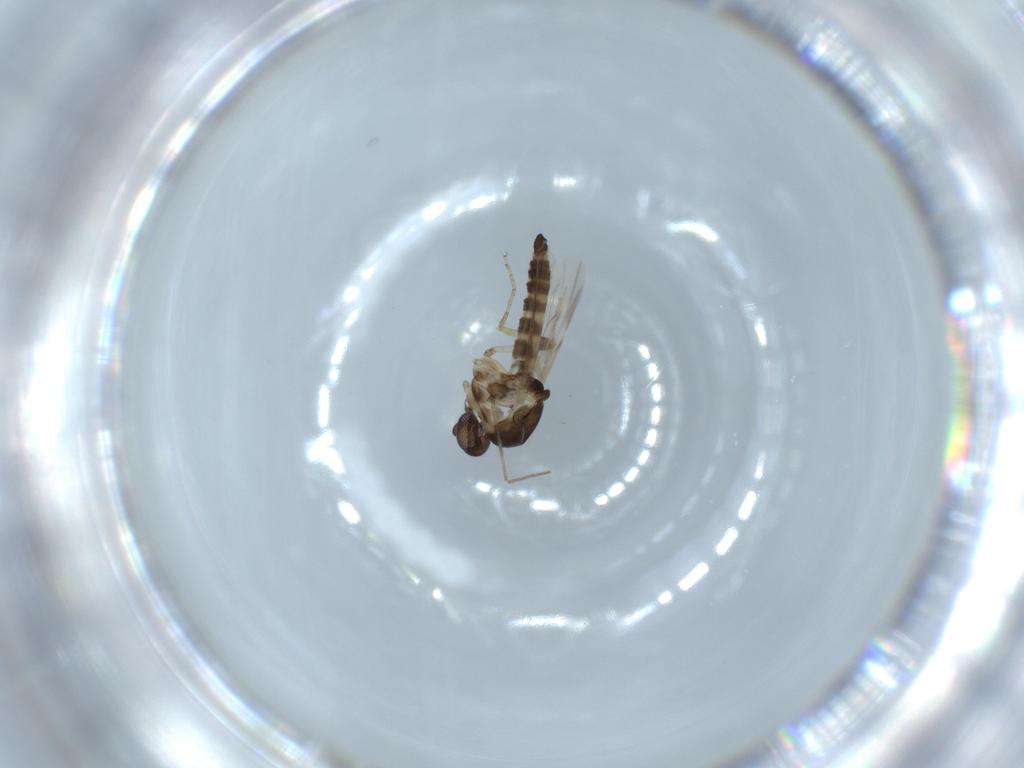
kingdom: Animalia
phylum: Arthropoda
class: Insecta
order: Diptera
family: Ceratopogonidae
